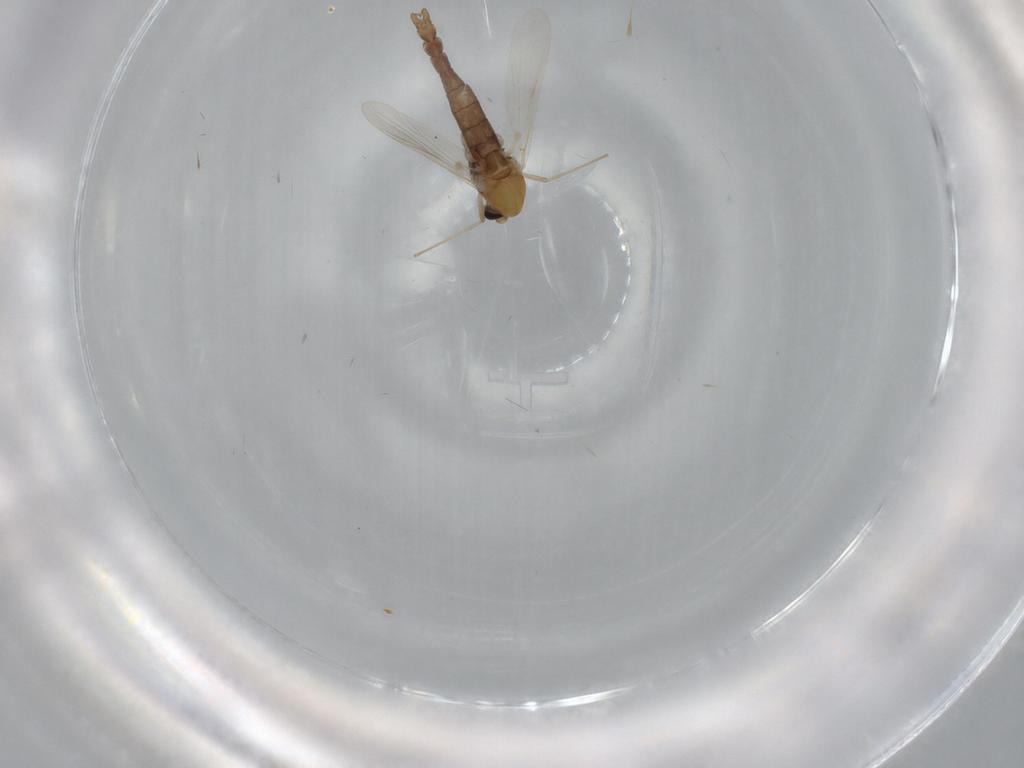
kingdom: Animalia
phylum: Arthropoda
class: Insecta
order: Diptera
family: Chironomidae
